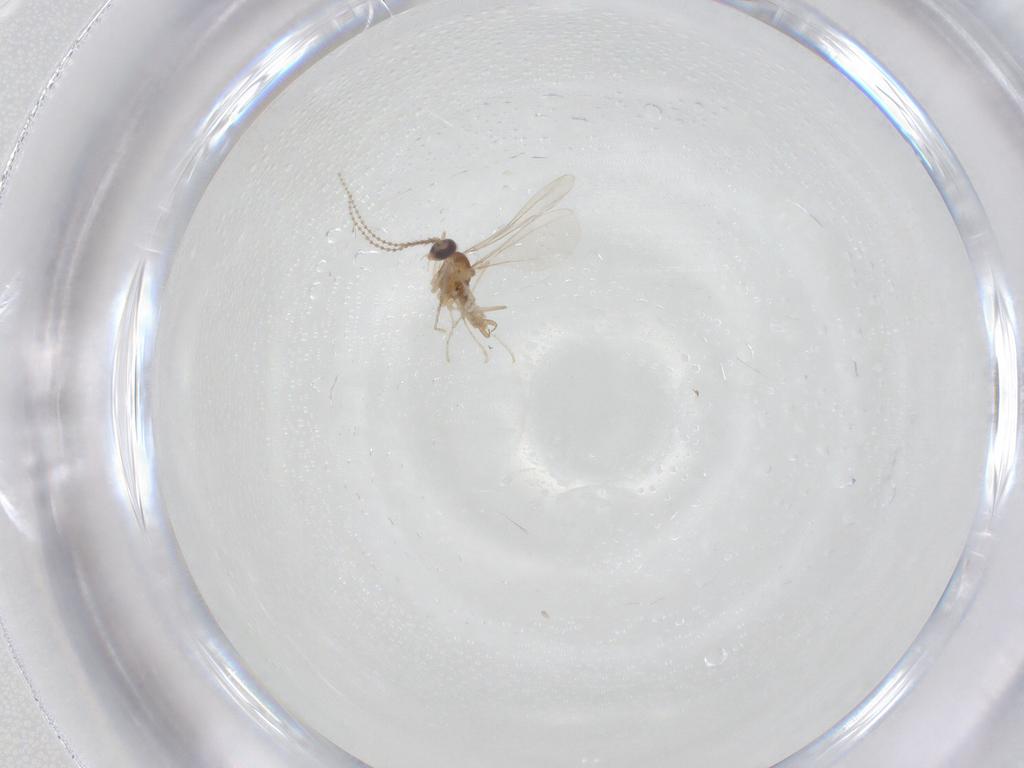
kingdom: Animalia
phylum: Arthropoda
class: Insecta
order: Diptera
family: Cecidomyiidae
